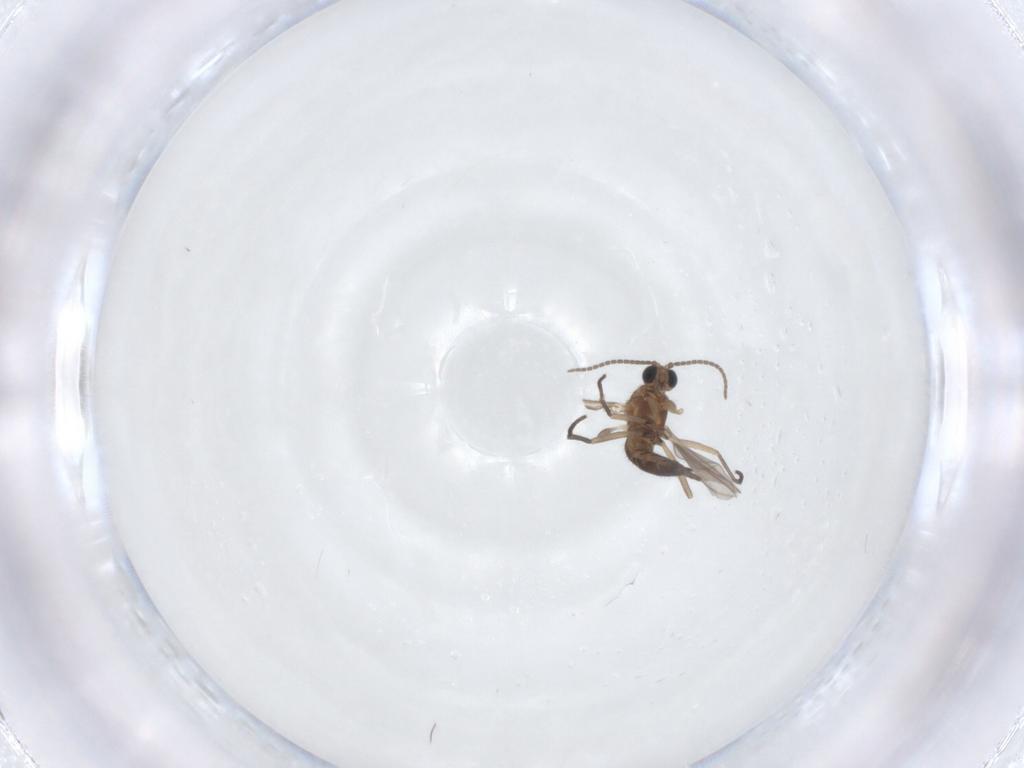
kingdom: Animalia
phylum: Arthropoda
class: Insecta
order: Diptera
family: Sciaridae
